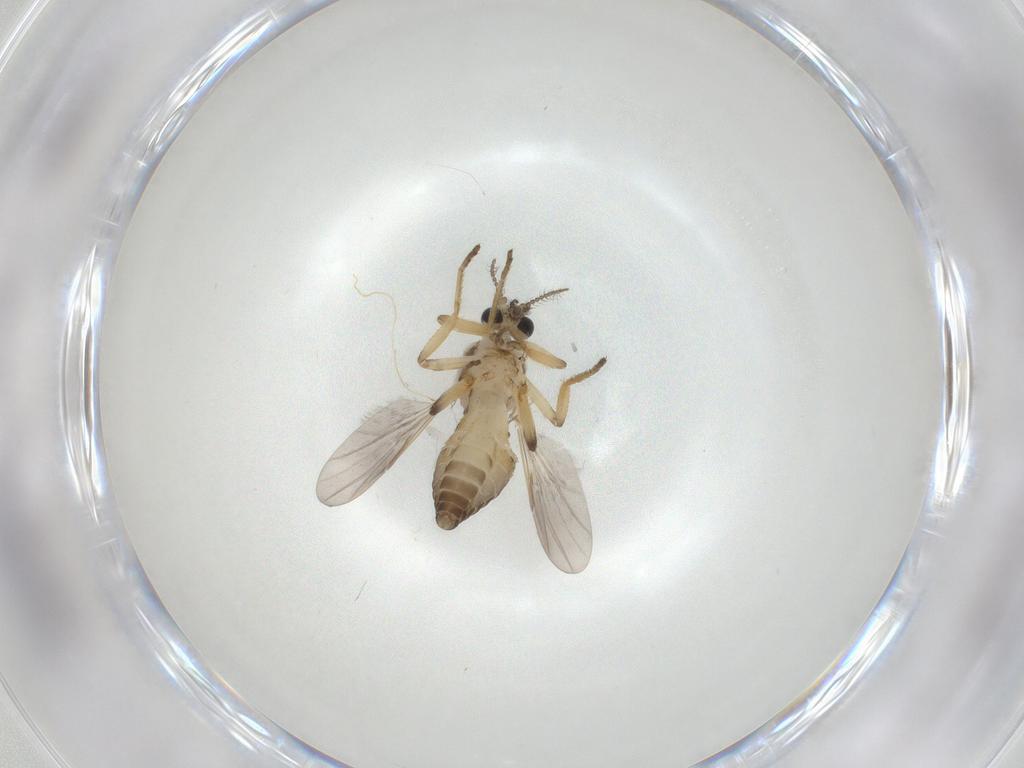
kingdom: Animalia
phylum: Arthropoda
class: Insecta
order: Diptera
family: Ceratopogonidae
